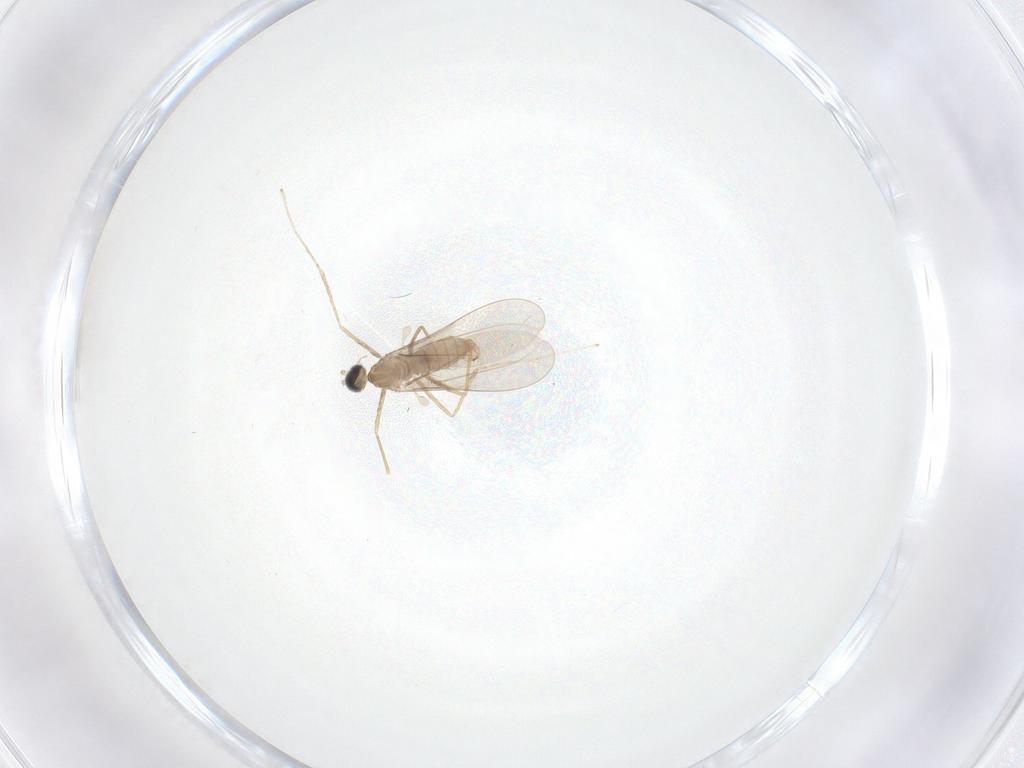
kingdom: Animalia
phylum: Arthropoda
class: Insecta
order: Diptera
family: Cecidomyiidae
